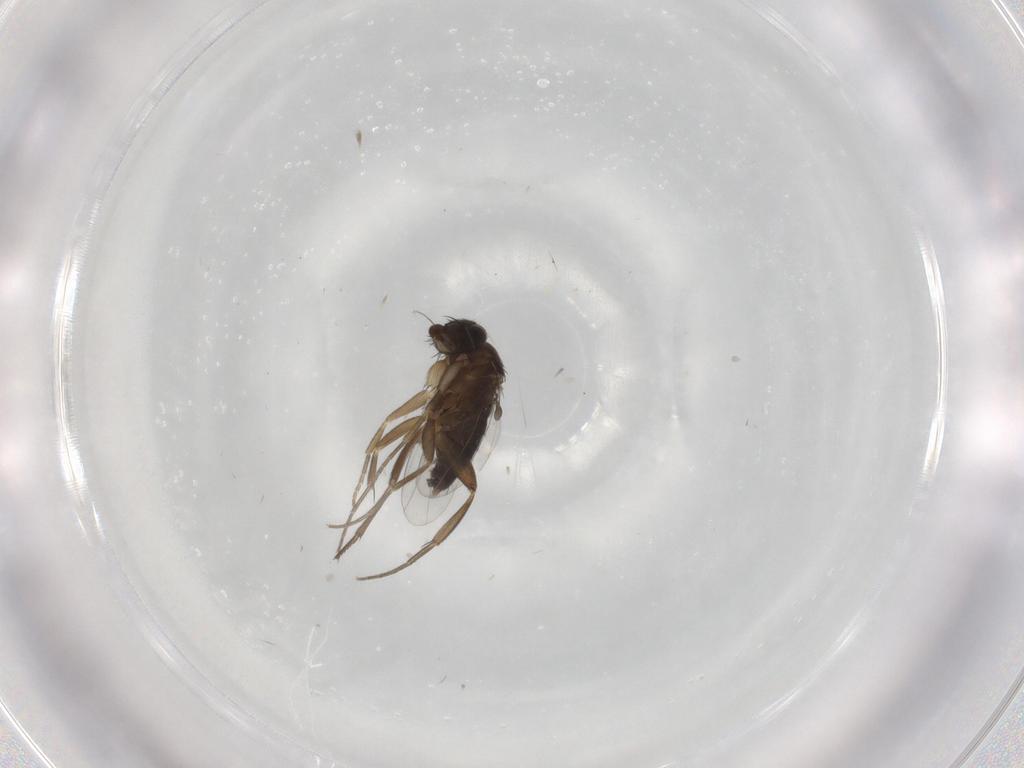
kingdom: Animalia
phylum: Arthropoda
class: Insecta
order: Diptera
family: Phoridae
